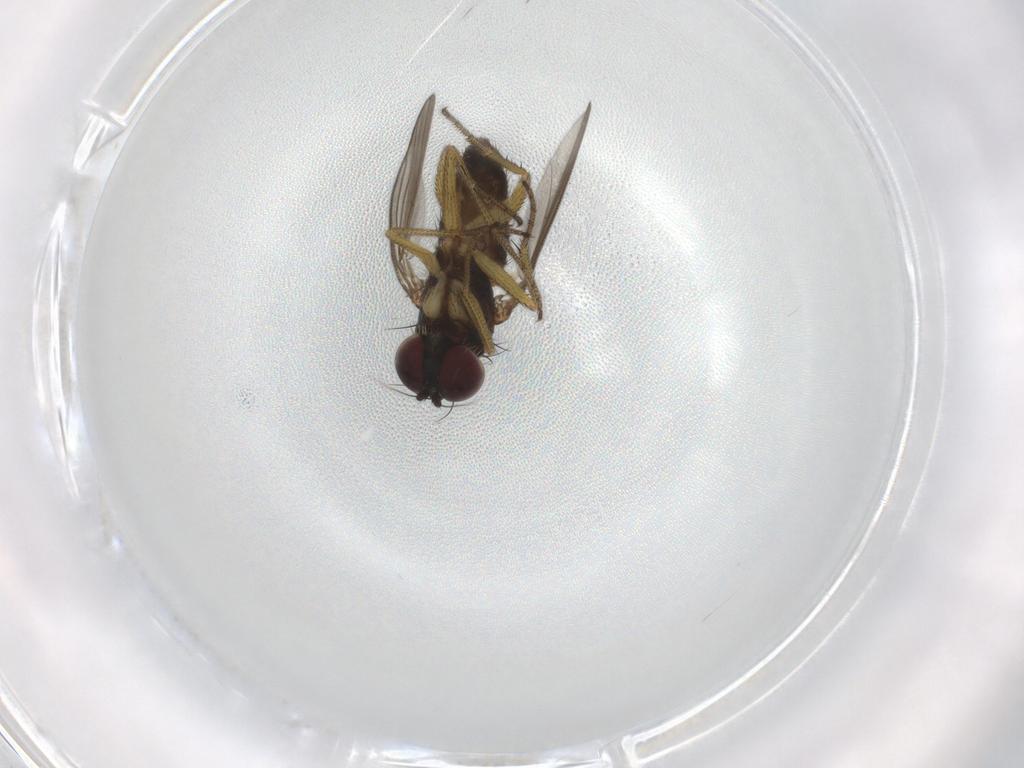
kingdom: Animalia
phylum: Arthropoda
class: Insecta
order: Diptera
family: Dolichopodidae
